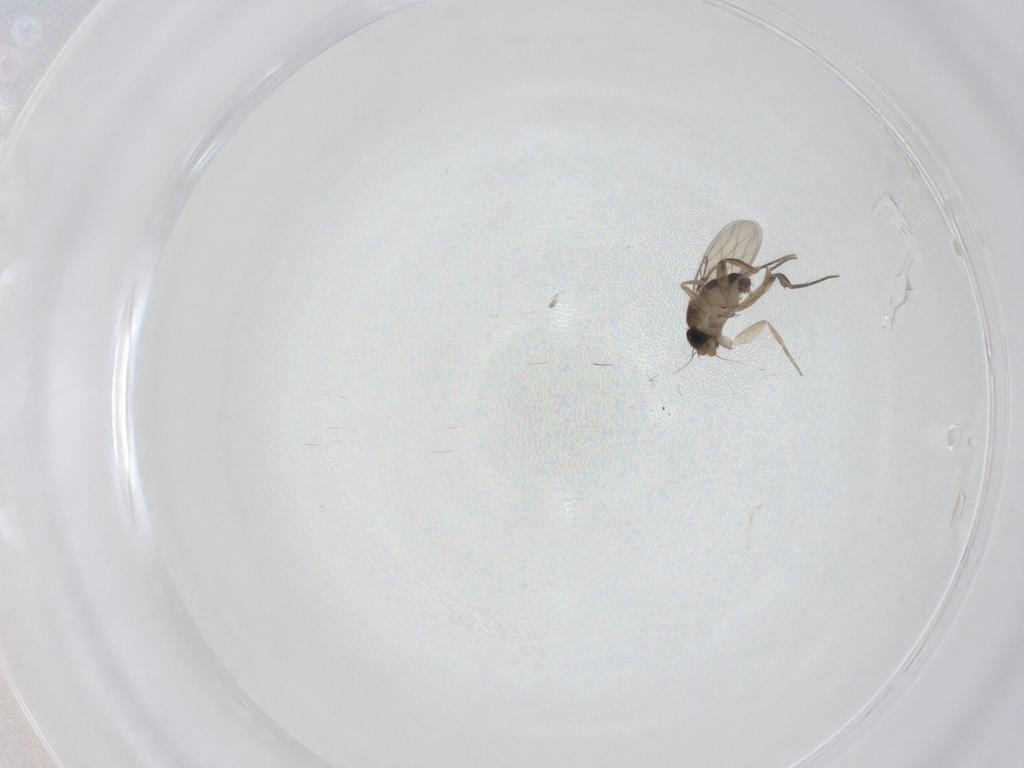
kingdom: Animalia
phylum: Arthropoda
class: Insecta
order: Diptera
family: Phoridae
